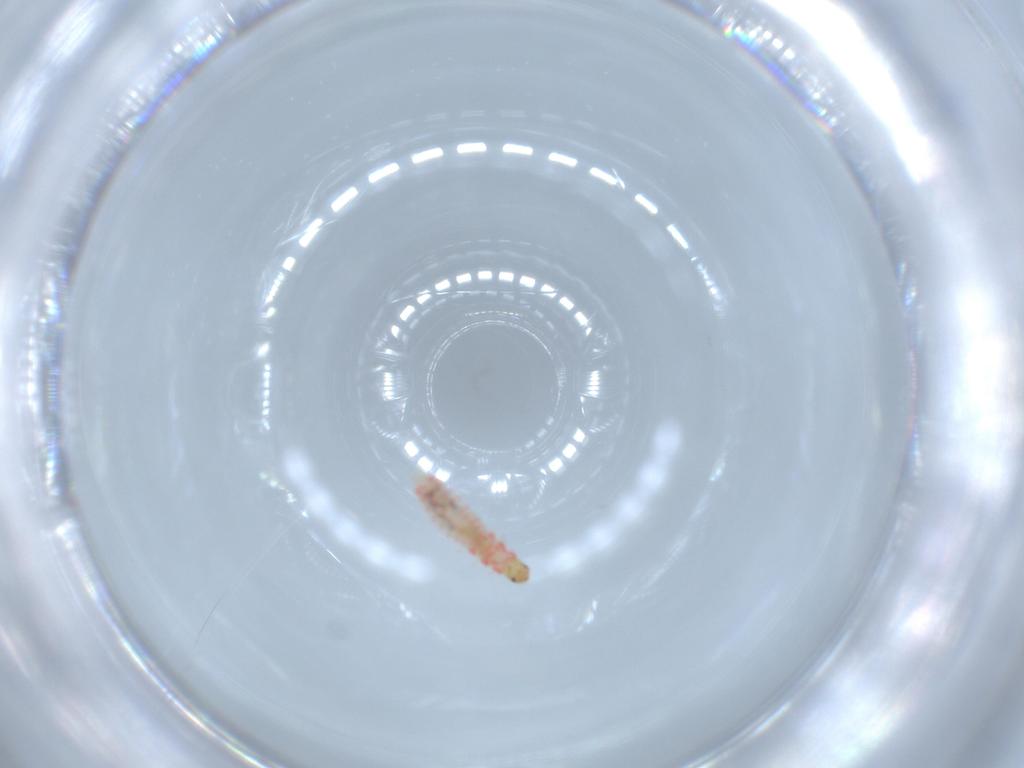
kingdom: Animalia
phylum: Arthropoda
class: Insecta
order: Coleoptera
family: Melyridae
